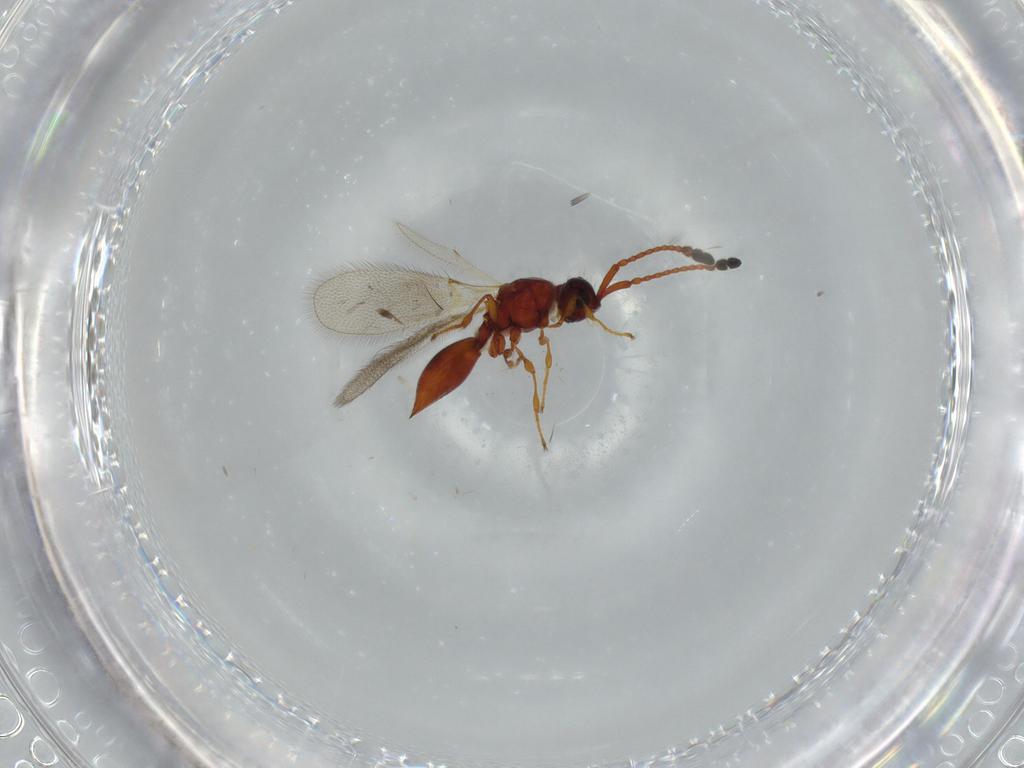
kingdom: Animalia
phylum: Arthropoda
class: Insecta
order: Hymenoptera
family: Diapriidae
